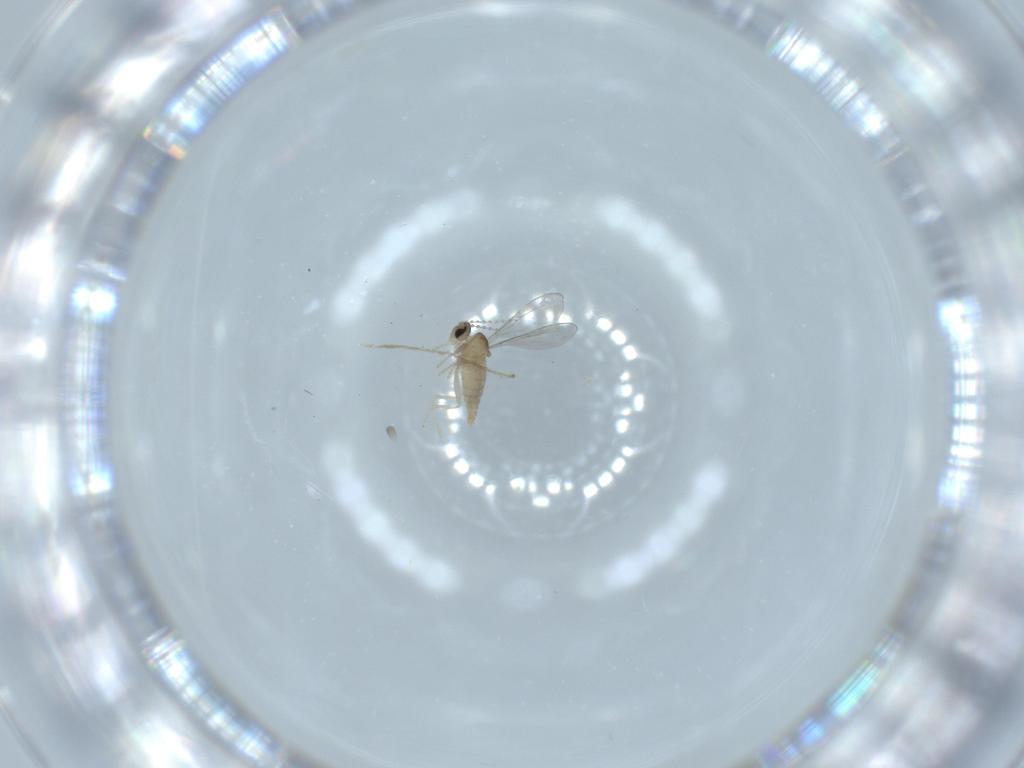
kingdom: Animalia
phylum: Arthropoda
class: Insecta
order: Diptera
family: Cecidomyiidae
